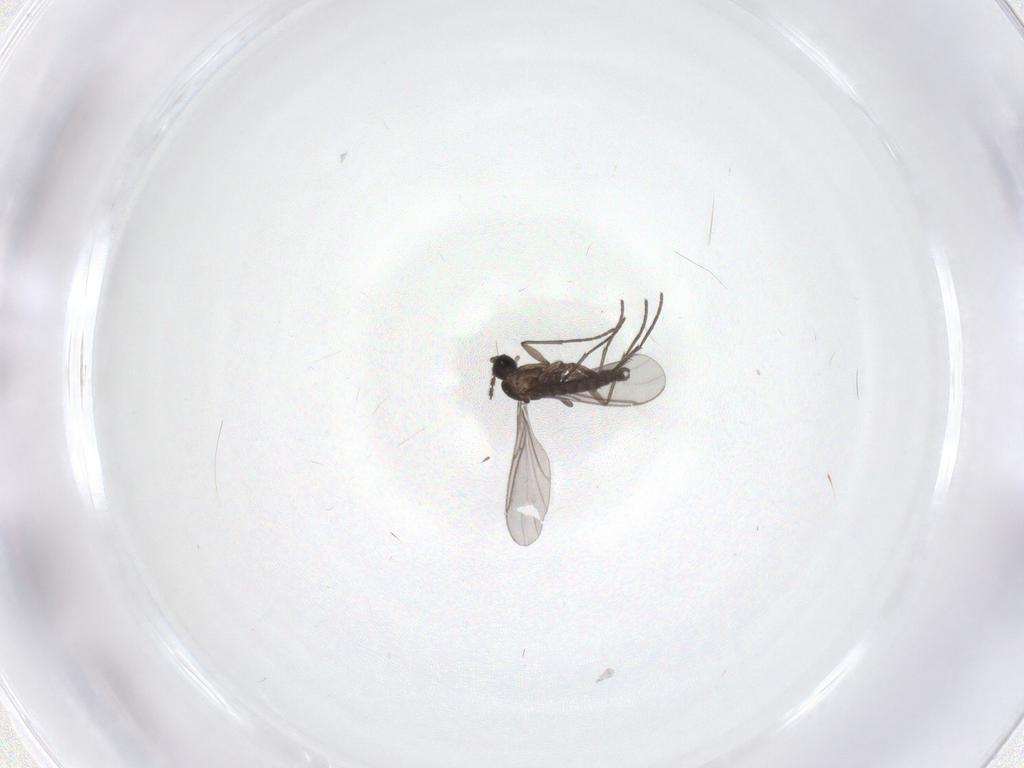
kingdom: Animalia
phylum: Arthropoda
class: Insecta
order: Diptera
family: Sciaridae
